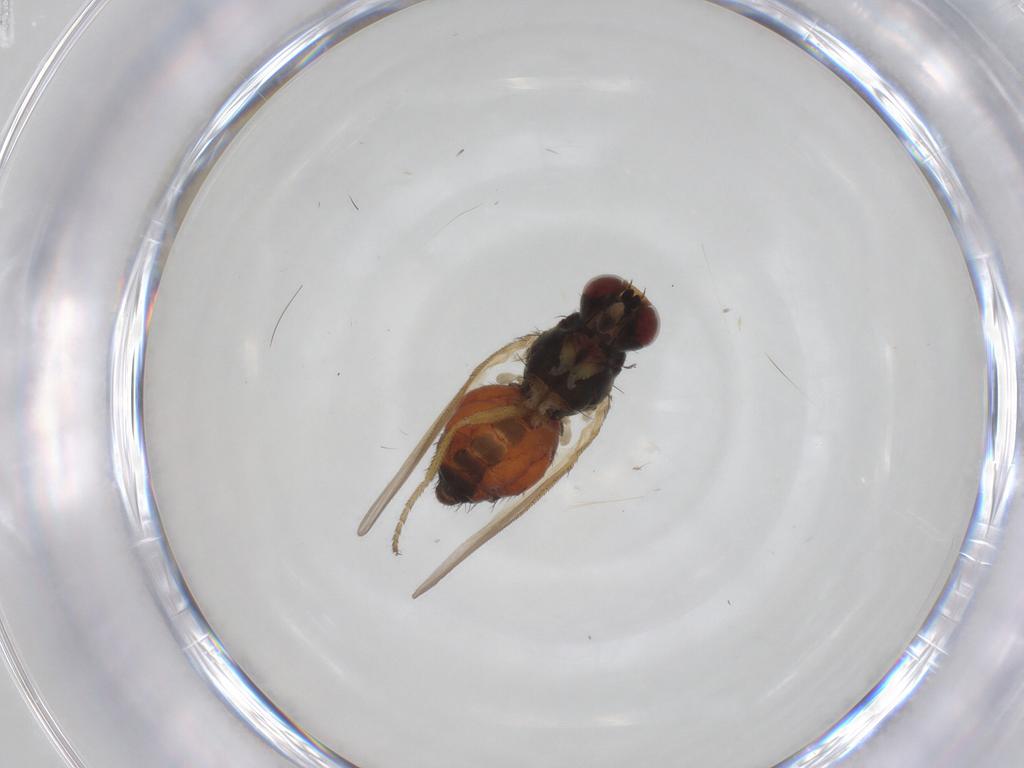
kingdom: Animalia
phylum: Arthropoda
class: Insecta
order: Diptera
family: Heleomyzidae
